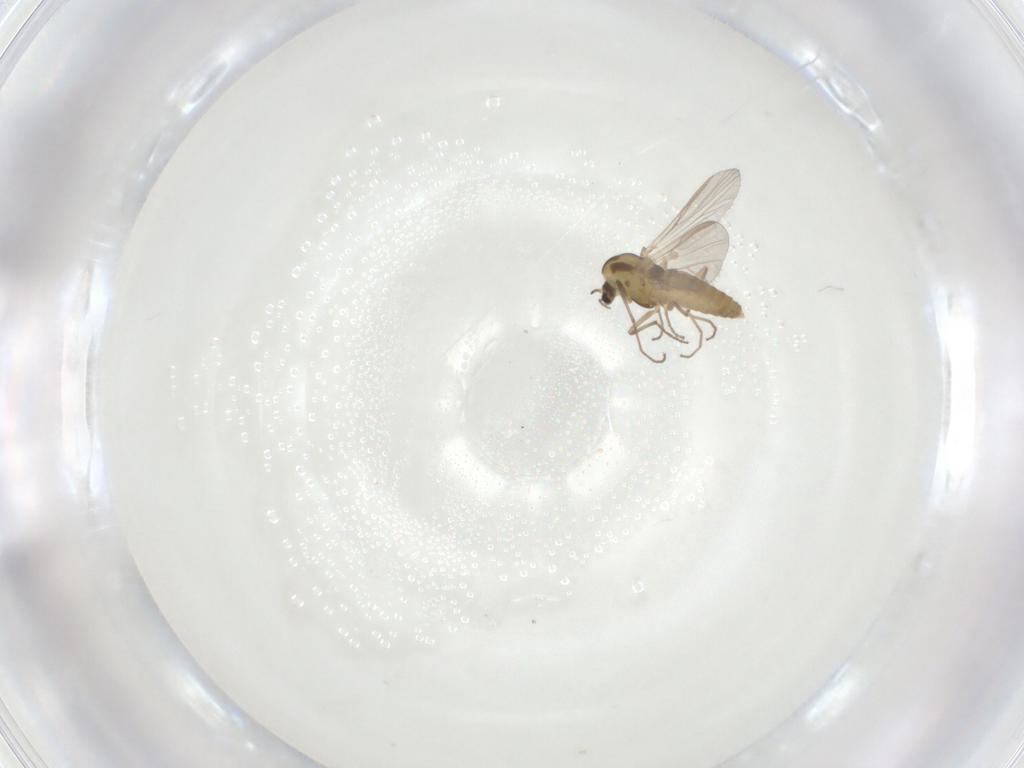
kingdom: Animalia
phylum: Arthropoda
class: Insecta
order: Diptera
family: Chironomidae
